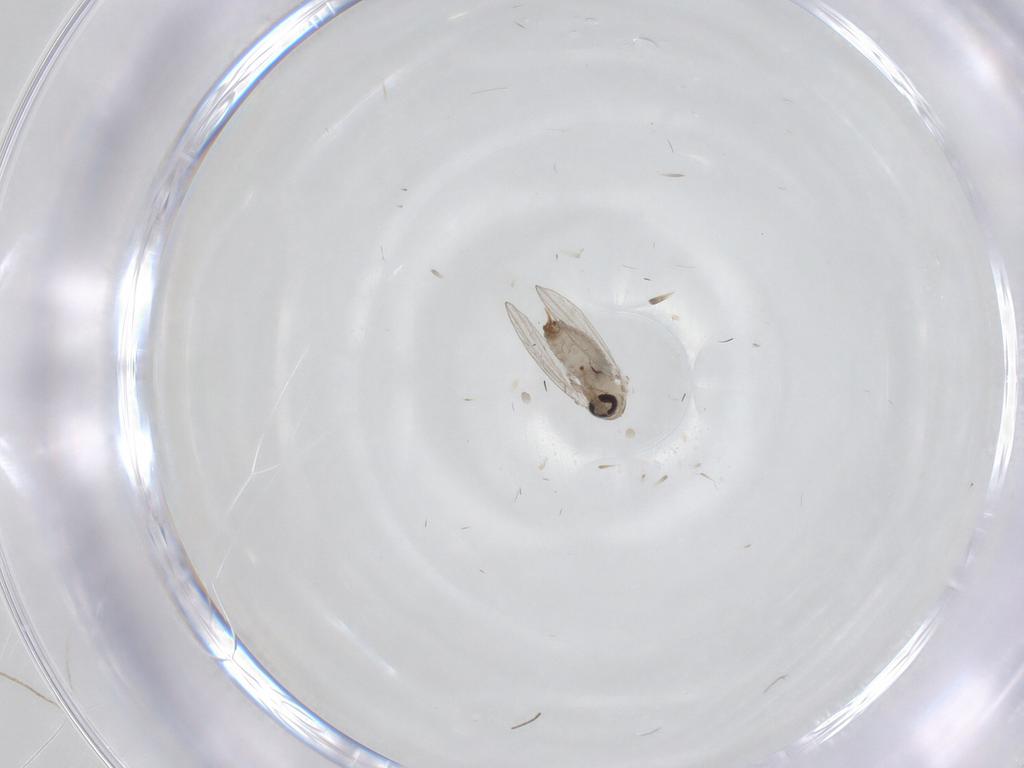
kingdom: Animalia
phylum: Arthropoda
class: Insecta
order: Diptera
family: Psychodidae
